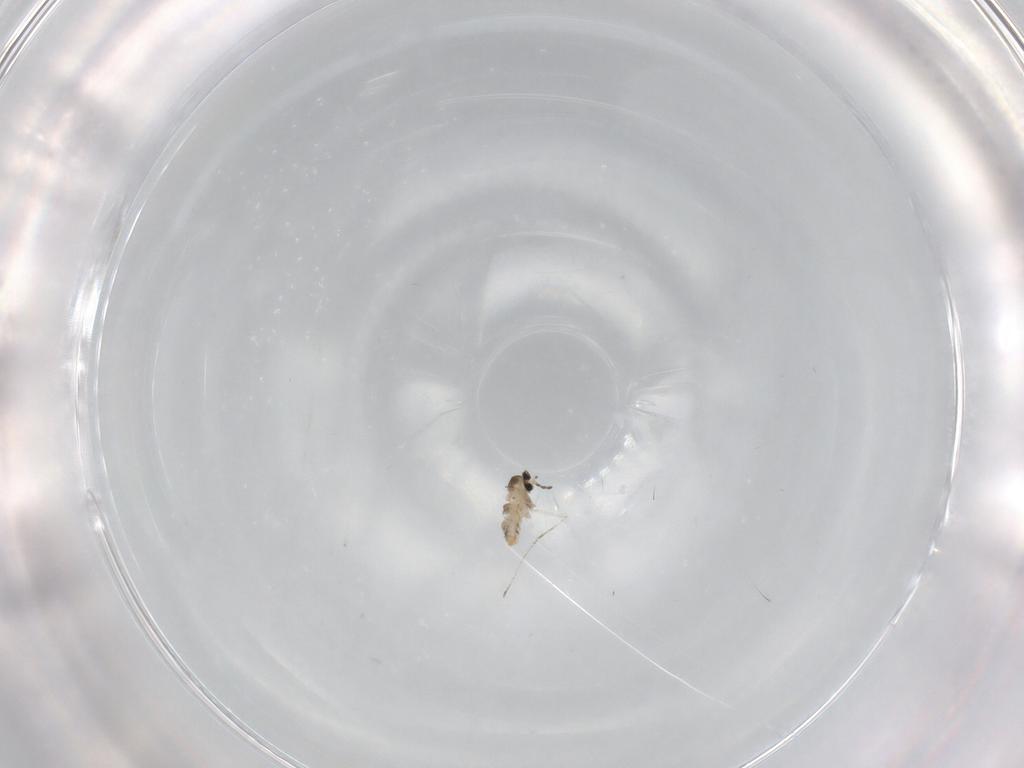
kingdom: Animalia
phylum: Arthropoda
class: Insecta
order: Diptera
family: Cecidomyiidae
